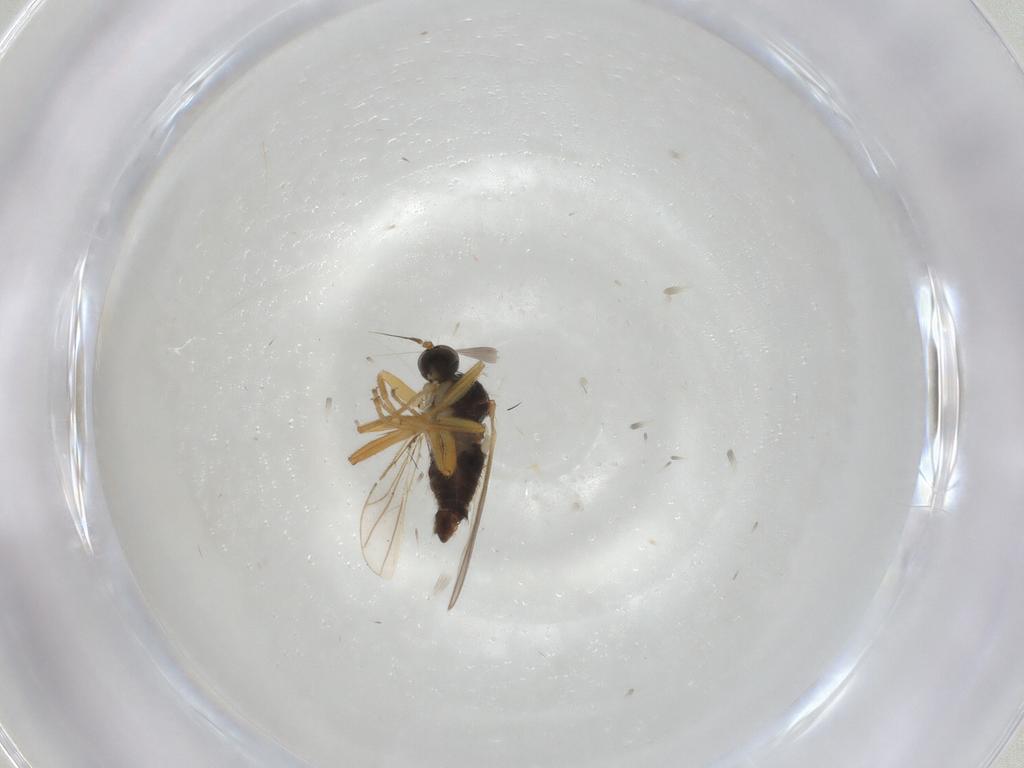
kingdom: Animalia
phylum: Arthropoda
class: Insecta
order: Diptera
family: Hybotidae
